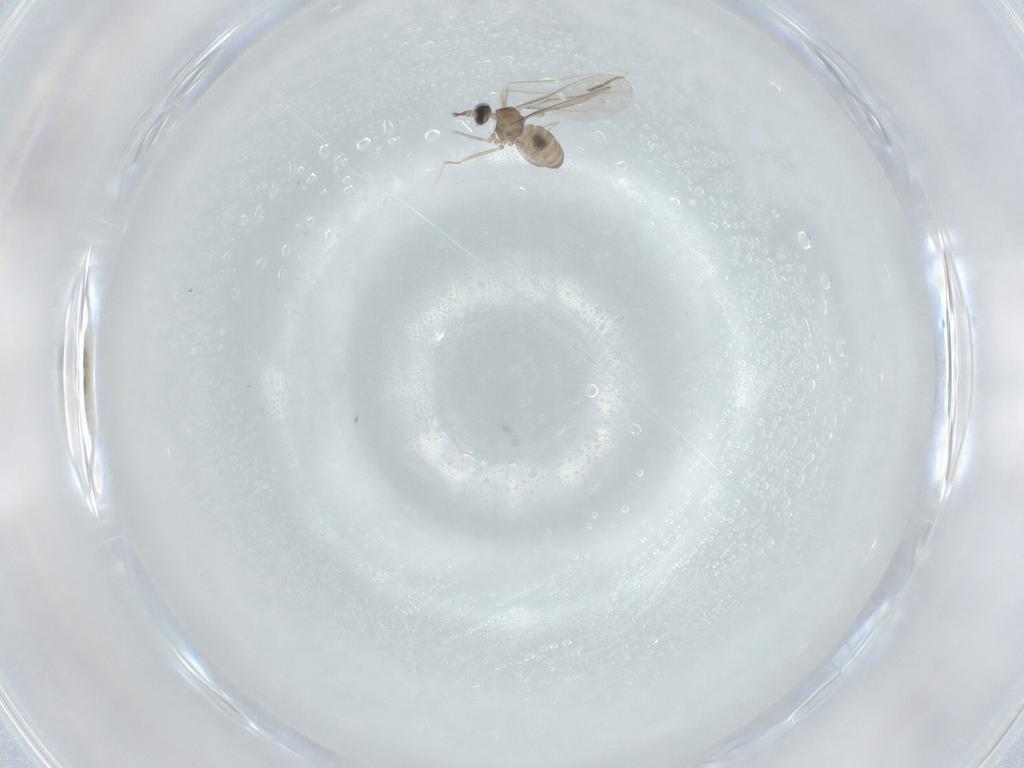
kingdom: Animalia
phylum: Arthropoda
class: Insecta
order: Diptera
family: Cecidomyiidae
